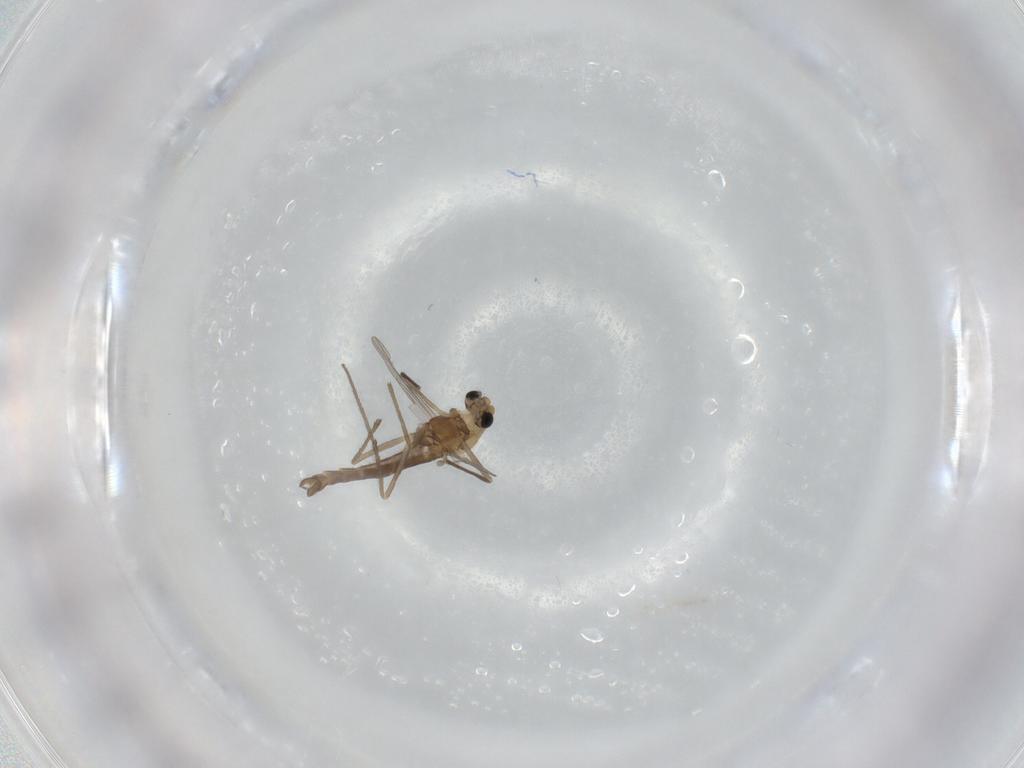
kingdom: Animalia
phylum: Arthropoda
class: Insecta
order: Diptera
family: Chironomidae
